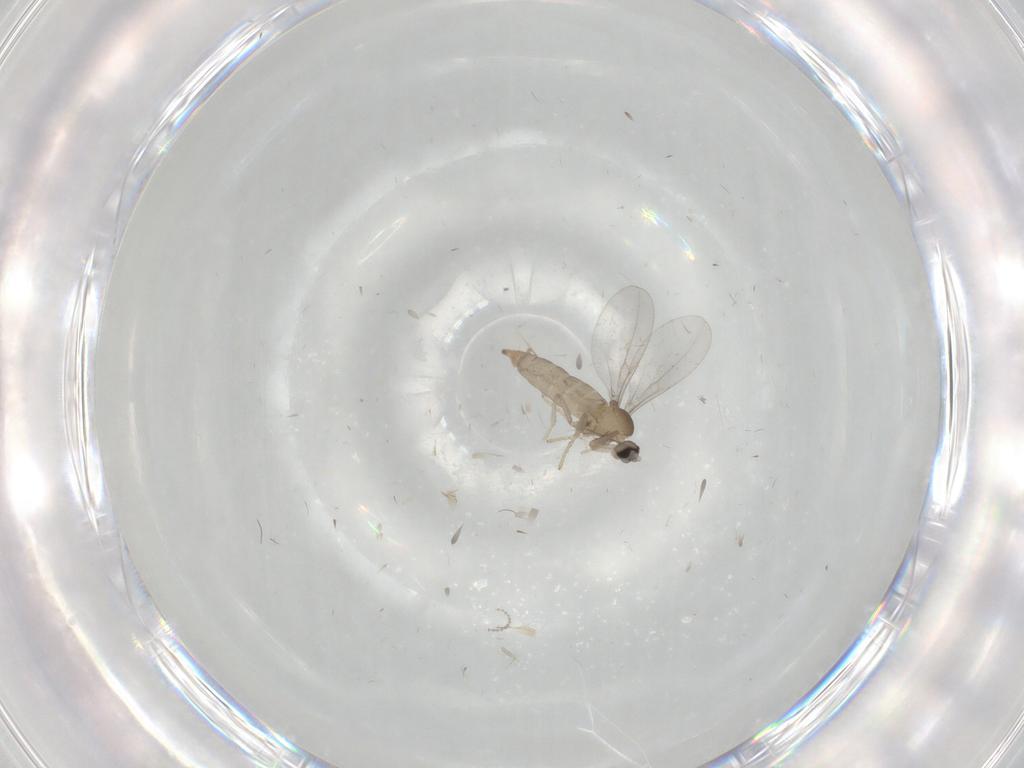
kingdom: Animalia
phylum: Arthropoda
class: Insecta
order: Diptera
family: Cecidomyiidae
